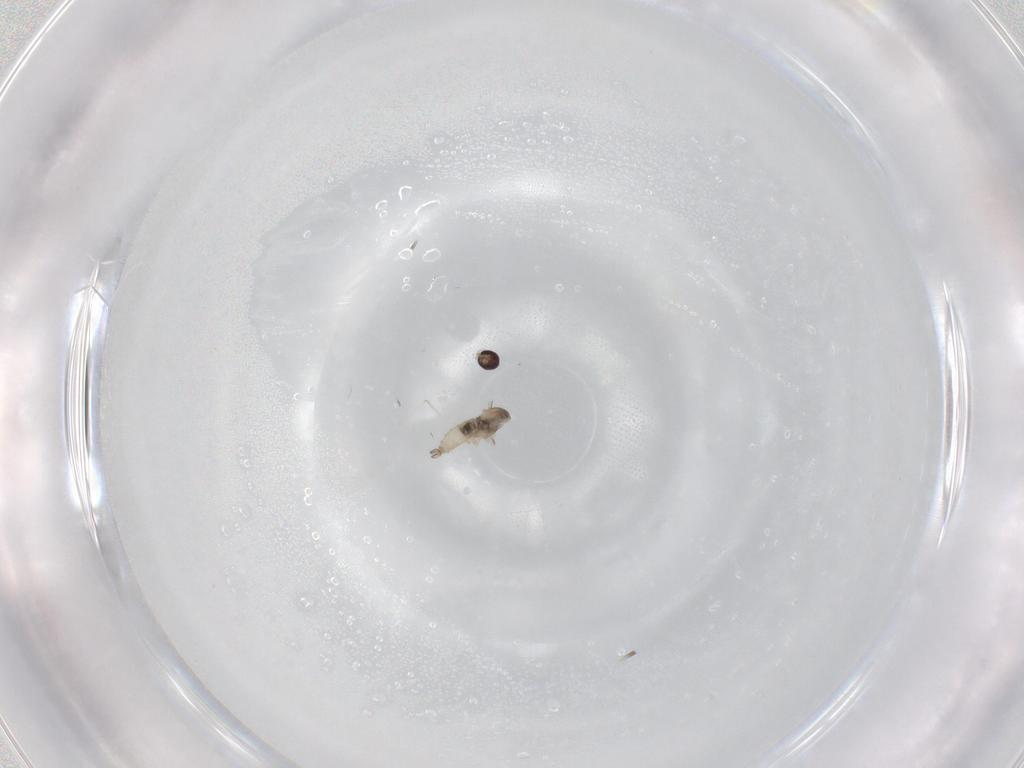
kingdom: Animalia
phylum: Arthropoda
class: Insecta
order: Diptera
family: Cecidomyiidae
